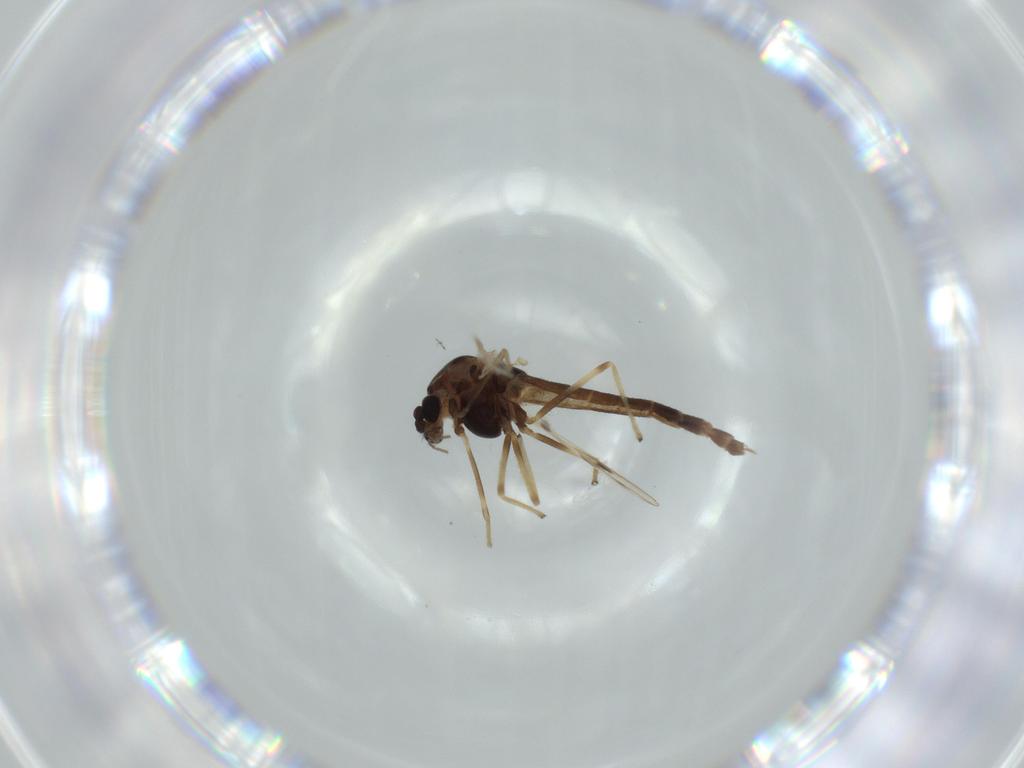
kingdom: Animalia
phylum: Arthropoda
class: Insecta
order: Diptera
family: Chironomidae
